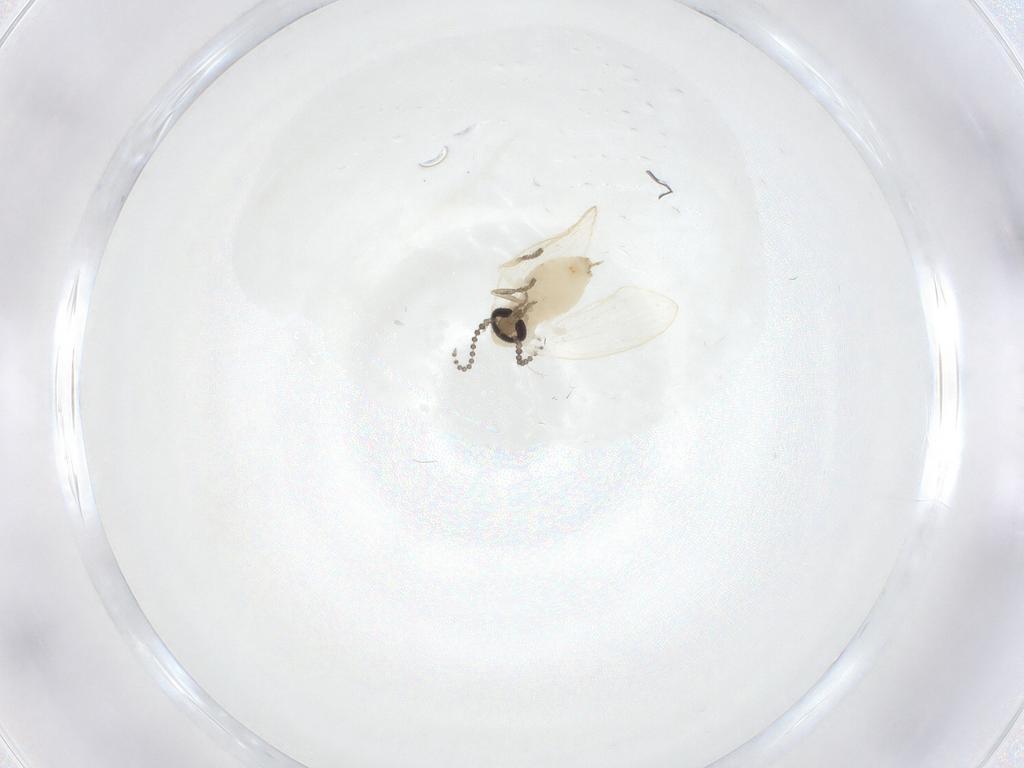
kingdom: Animalia
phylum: Arthropoda
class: Insecta
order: Diptera
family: Psychodidae
